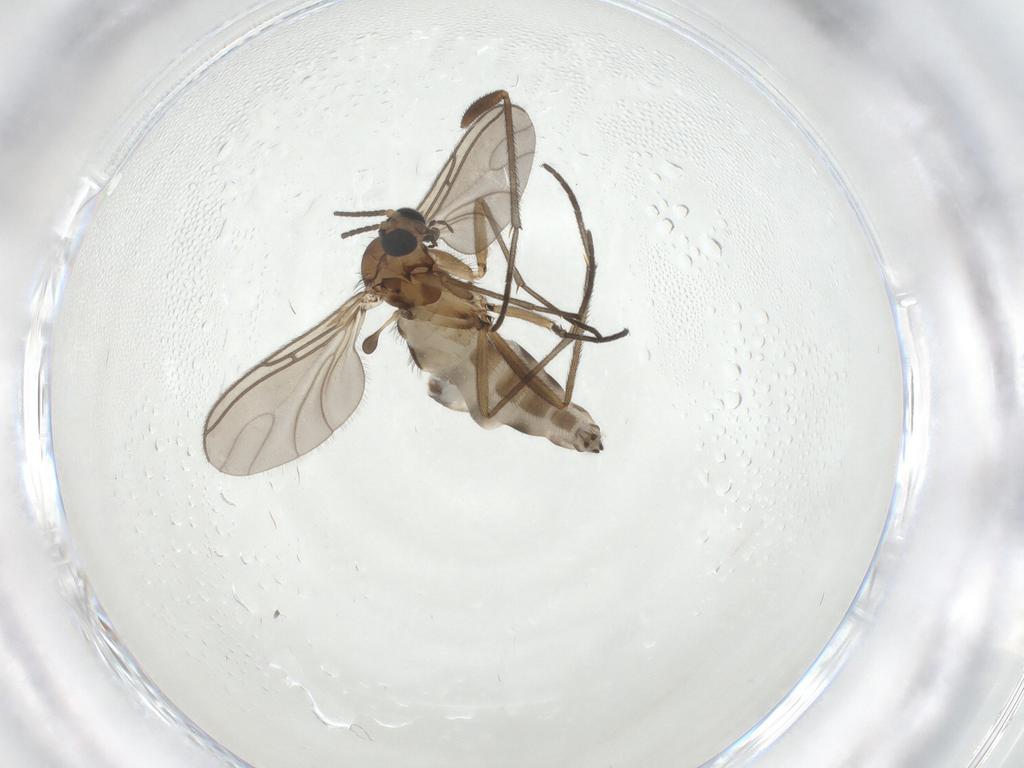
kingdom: Animalia
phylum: Arthropoda
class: Insecta
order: Diptera
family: Sciaridae
